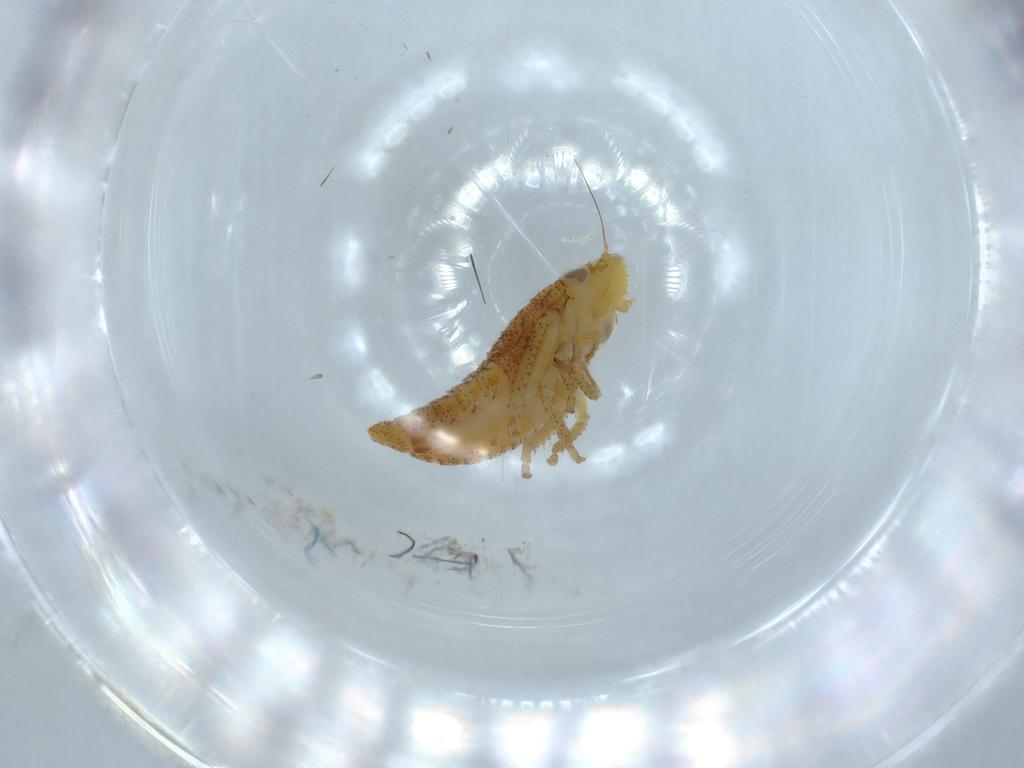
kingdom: Animalia
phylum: Arthropoda
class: Insecta
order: Hemiptera
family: Cicadellidae
